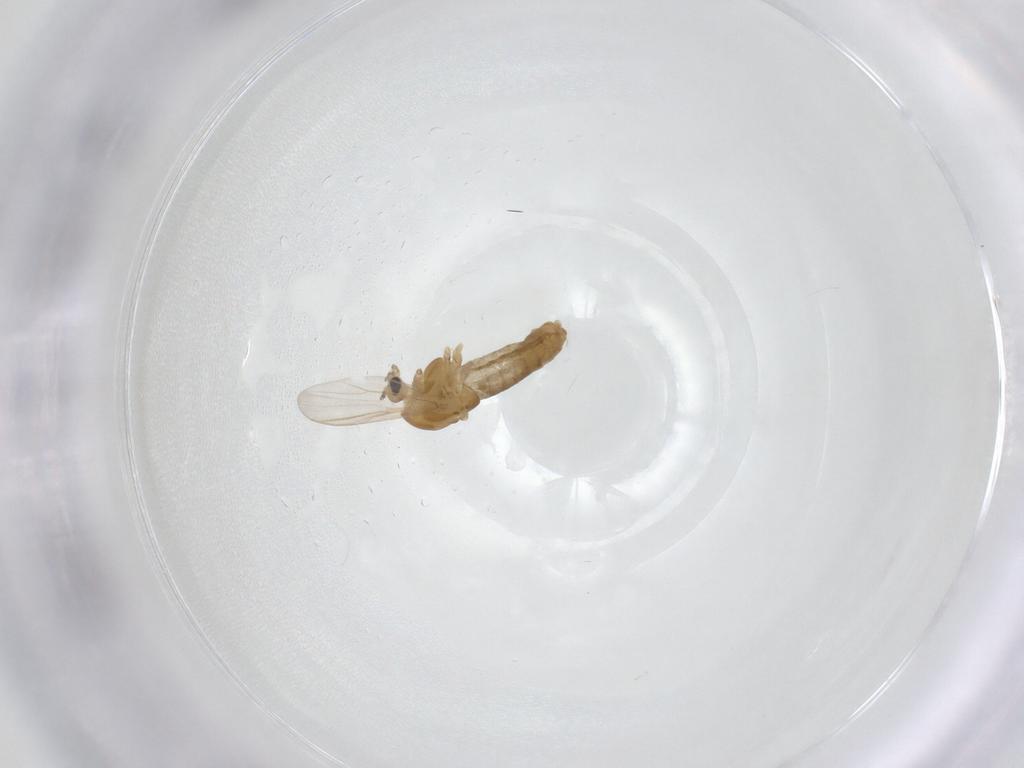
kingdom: Animalia
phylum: Arthropoda
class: Insecta
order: Diptera
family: Chironomidae
